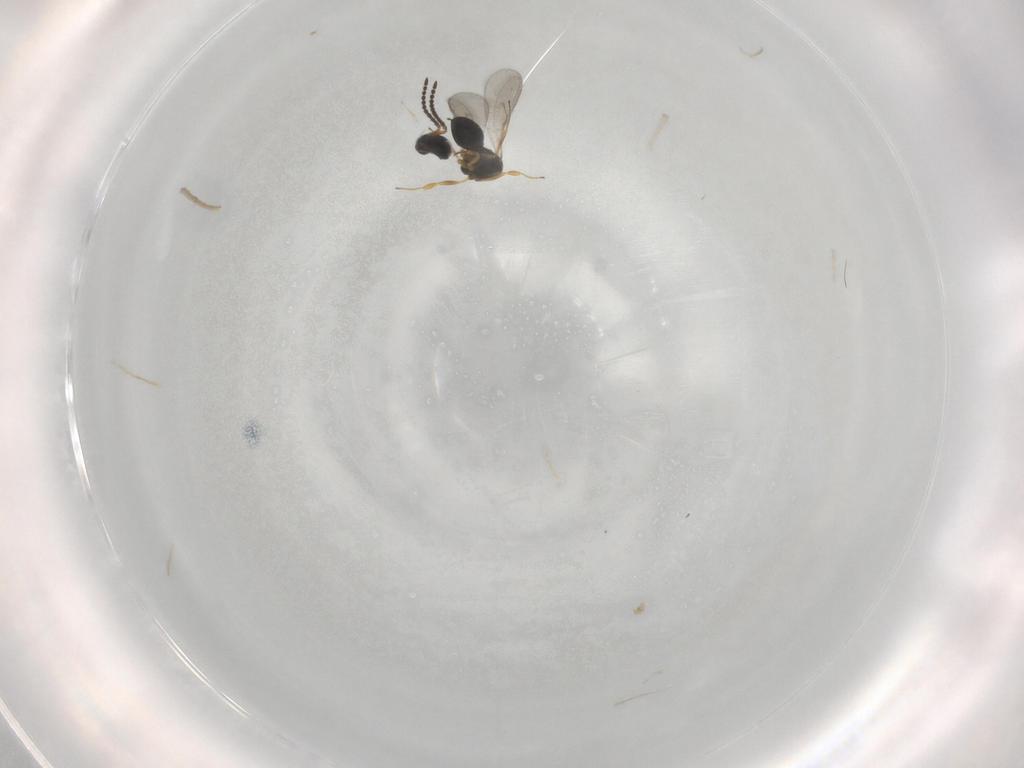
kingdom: Animalia
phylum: Arthropoda
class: Insecta
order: Hymenoptera
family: Scelionidae
